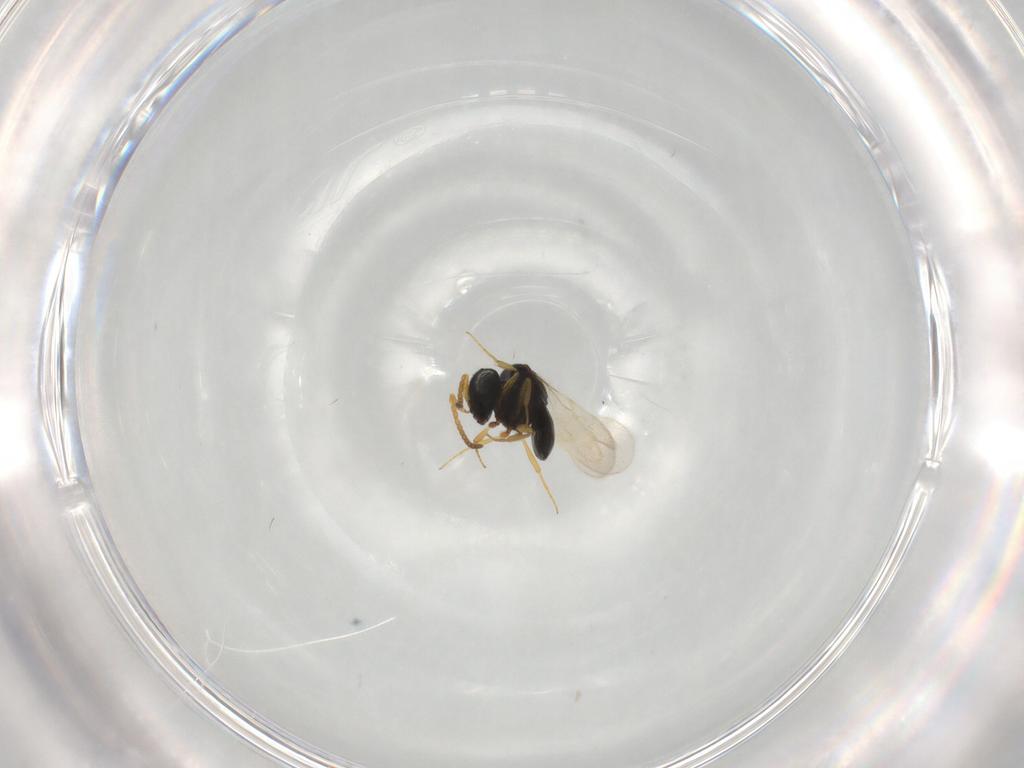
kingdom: Animalia
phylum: Arthropoda
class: Insecta
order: Hymenoptera
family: Scelionidae
